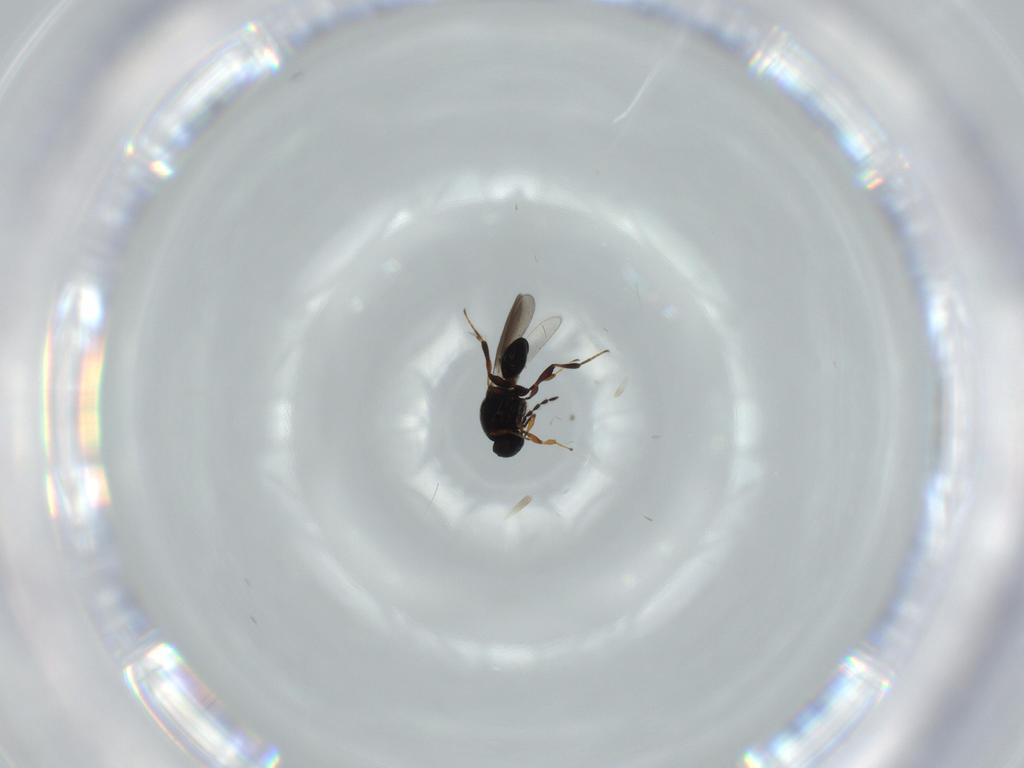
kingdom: Animalia
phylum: Arthropoda
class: Insecta
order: Hymenoptera
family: Platygastridae
